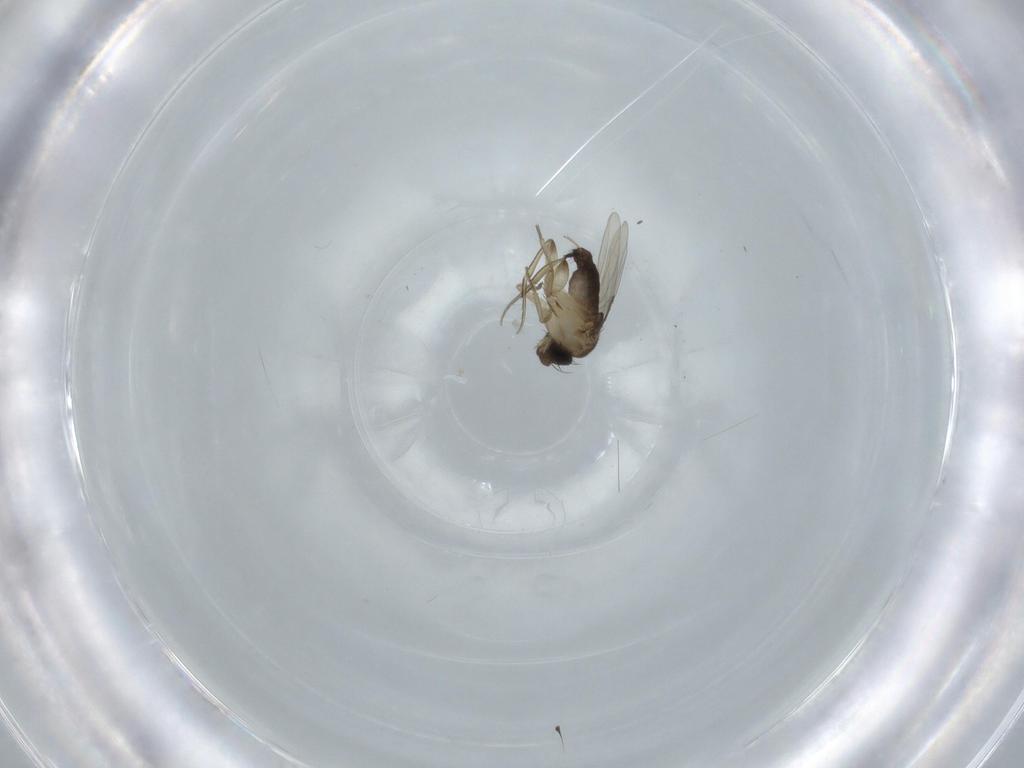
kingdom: Animalia
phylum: Arthropoda
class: Insecta
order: Diptera
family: Phoridae
